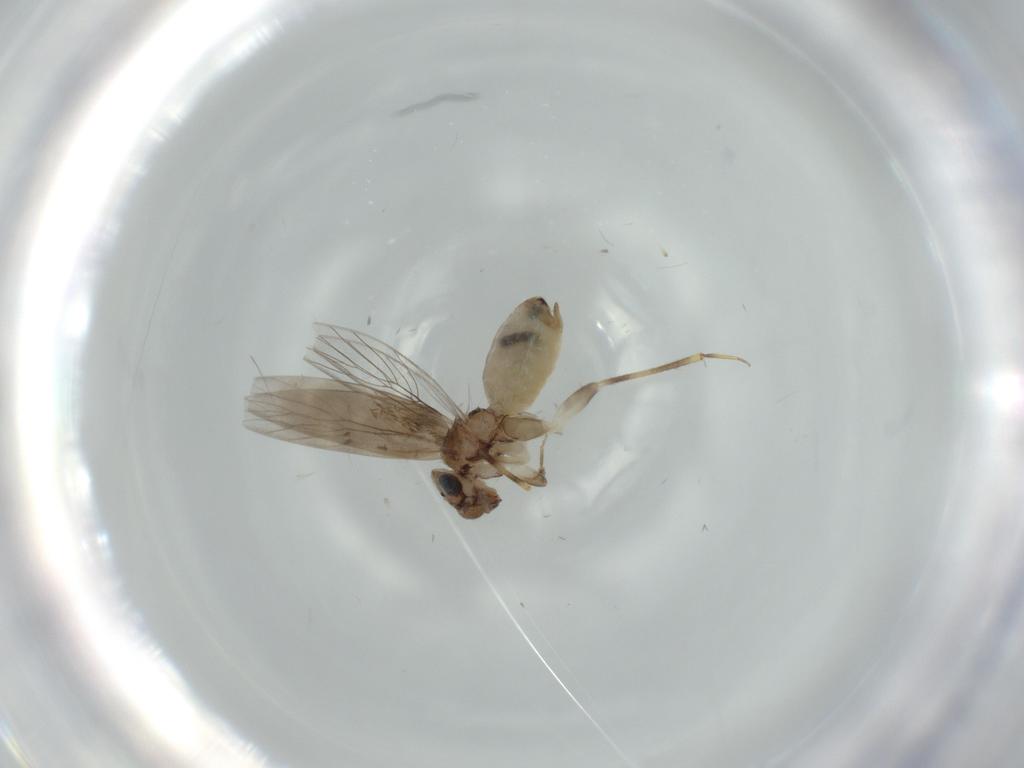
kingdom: Animalia
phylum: Arthropoda
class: Insecta
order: Psocodea
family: Lepidopsocidae
